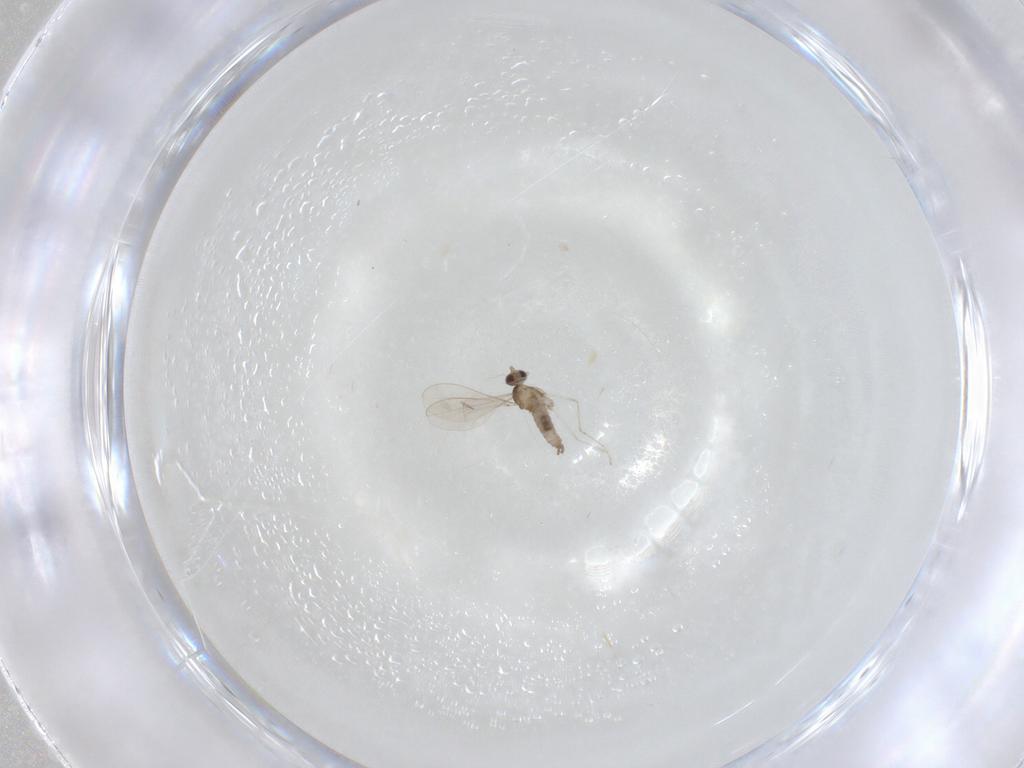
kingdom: Animalia
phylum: Arthropoda
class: Insecta
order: Diptera
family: Cecidomyiidae
